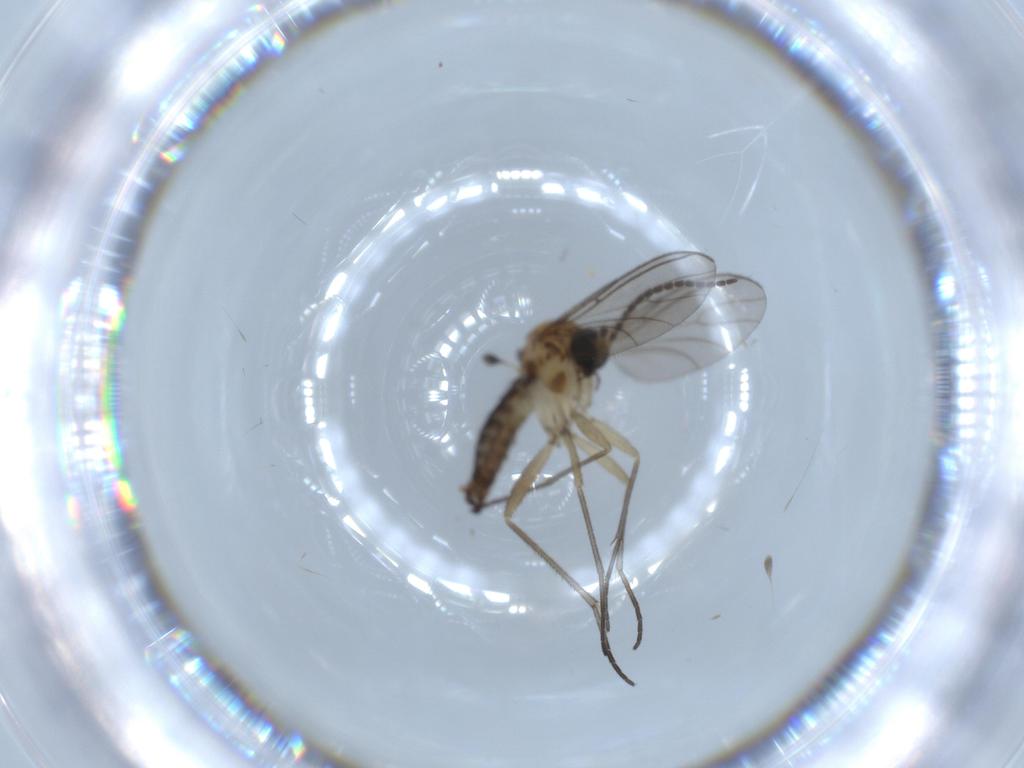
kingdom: Animalia
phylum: Arthropoda
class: Insecta
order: Diptera
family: Sciaridae
